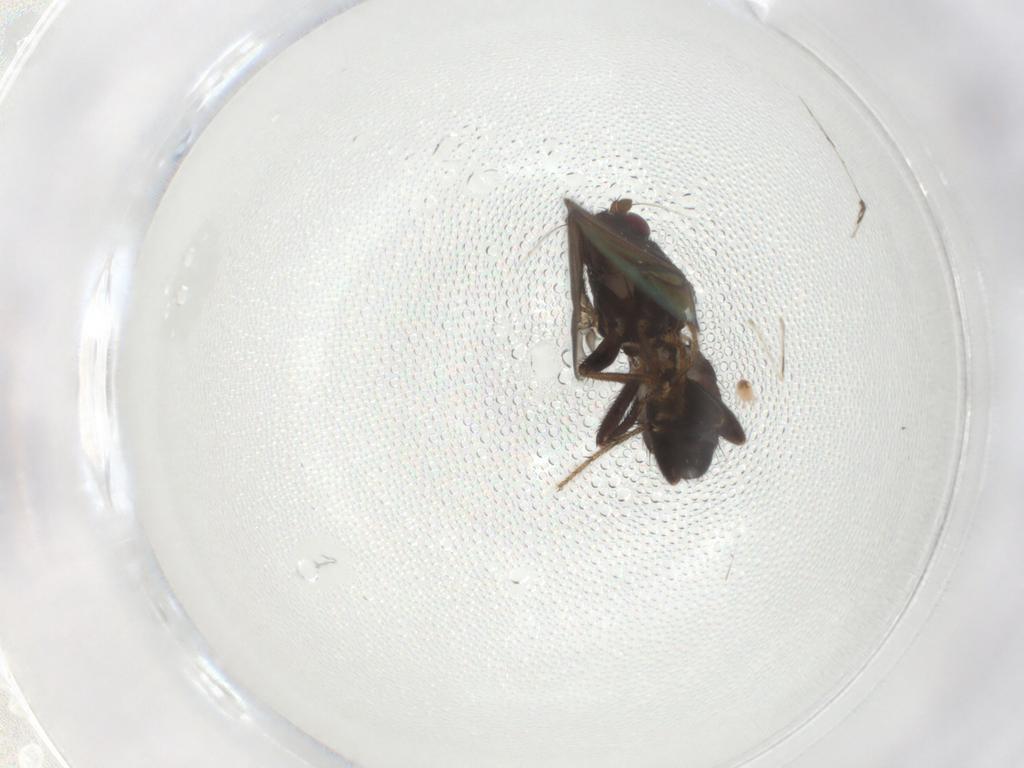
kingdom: Animalia
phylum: Arthropoda
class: Insecta
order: Diptera
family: Sphaeroceridae
